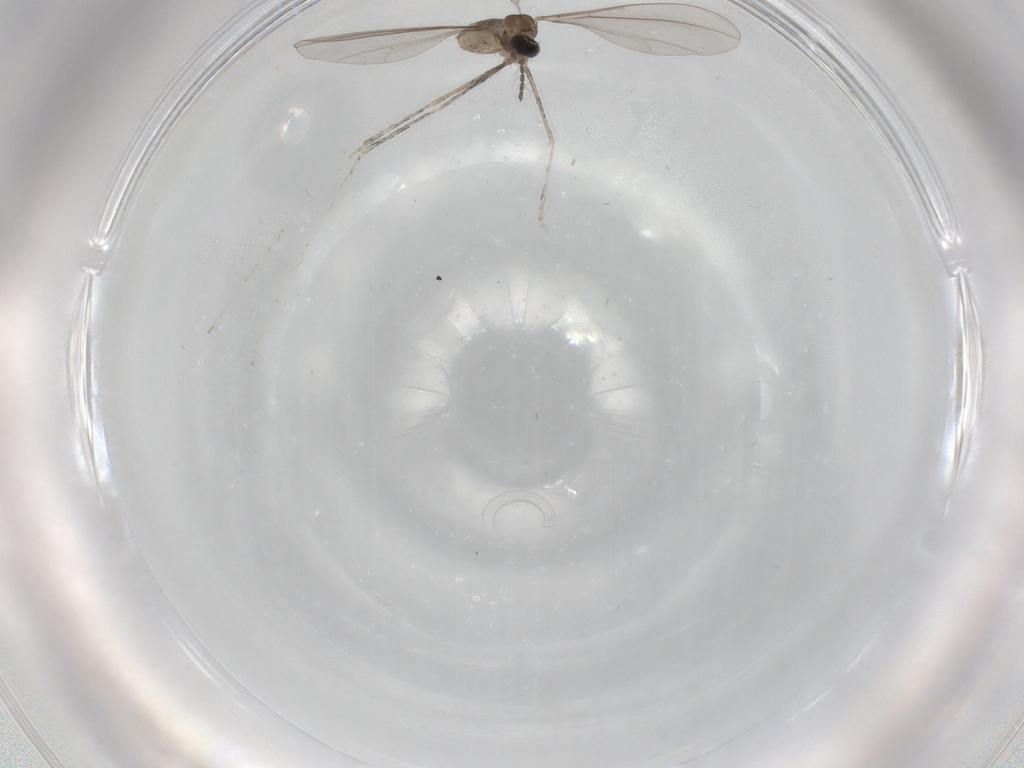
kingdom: Animalia
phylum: Arthropoda
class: Insecta
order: Diptera
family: Cecidomyiidae
